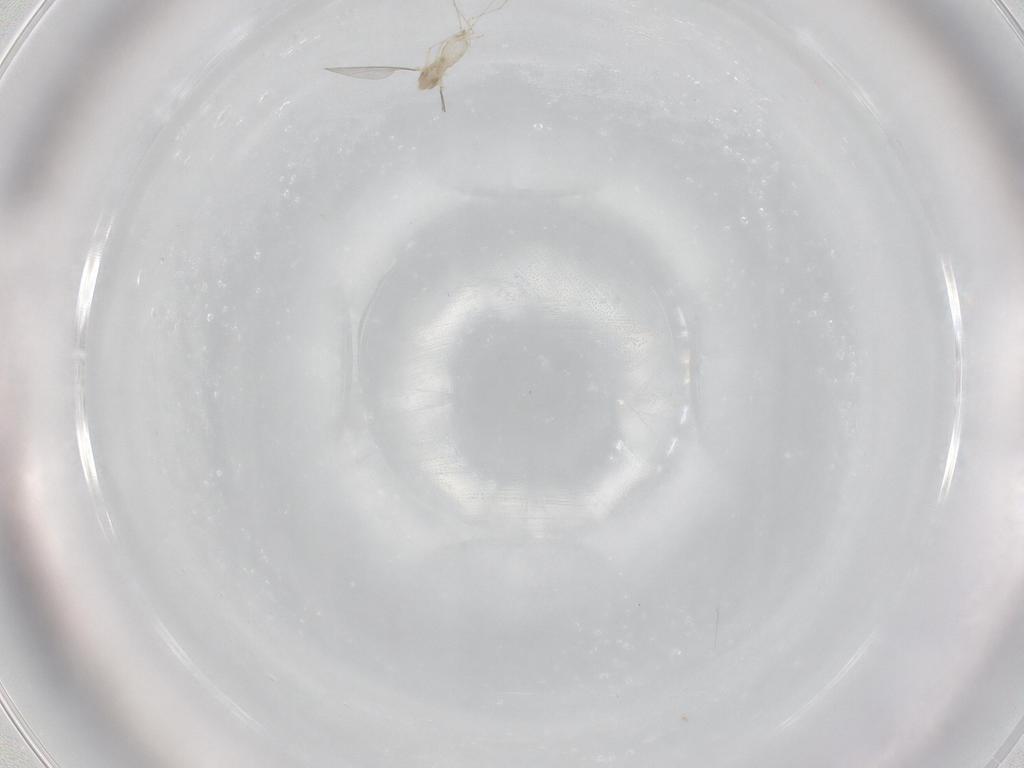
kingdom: Animalia
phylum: Arthropoda
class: Insecta
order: Diptera
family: Cecidomyiidae
